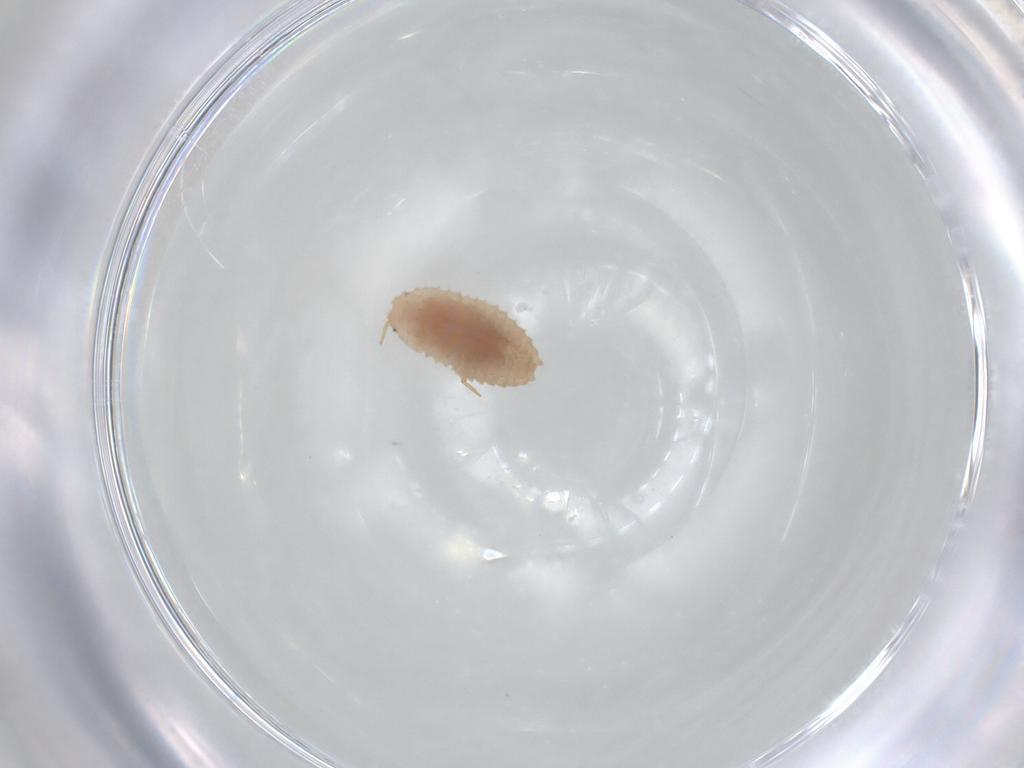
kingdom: Animalia
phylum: Arthropoda
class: Collembola
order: Entomobryomorpha
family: Entomobryidae
